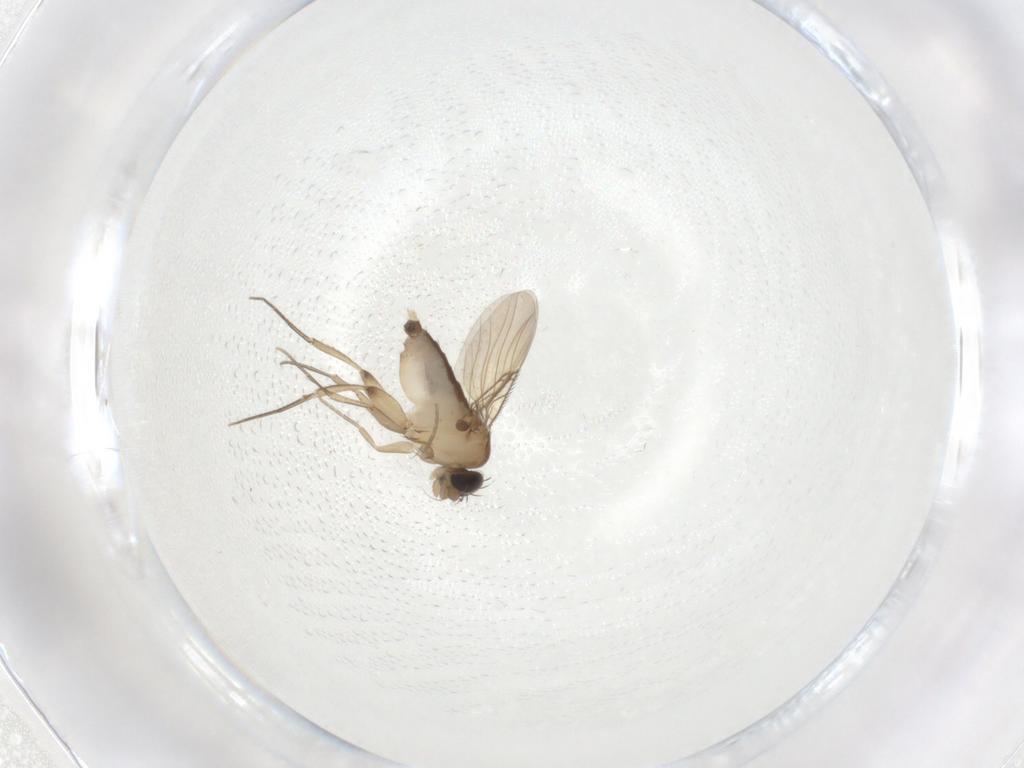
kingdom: Animalia
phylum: Arthropoda
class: Insecta
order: Diptera
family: Phoridae
